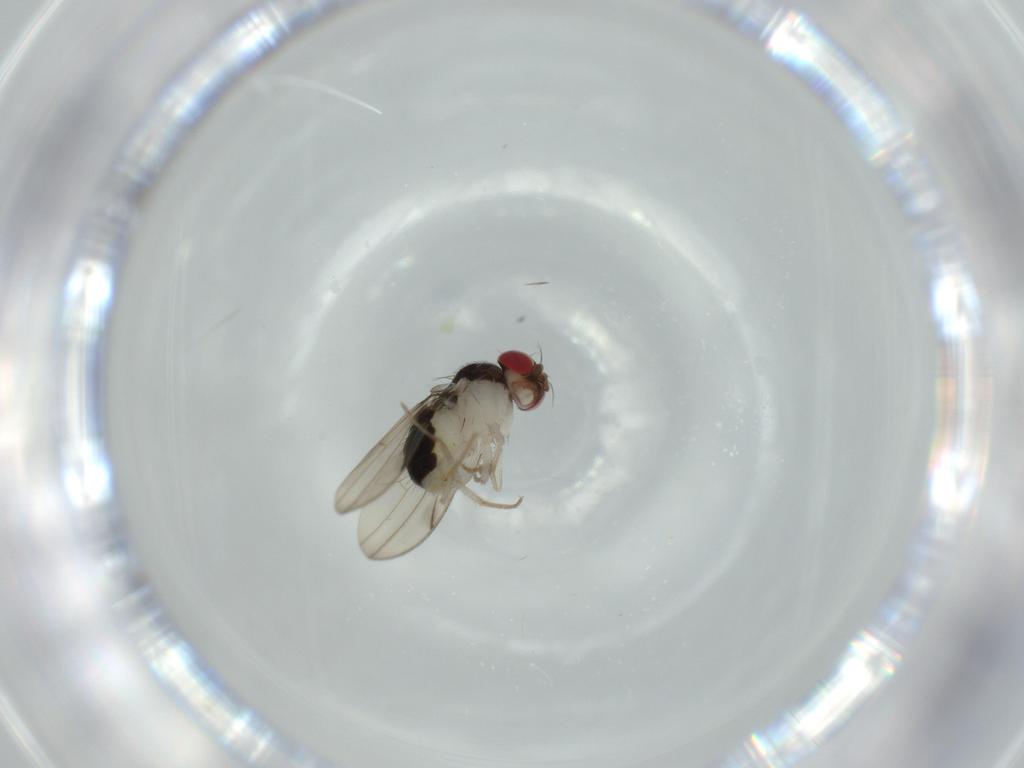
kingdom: Animalia
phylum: Arthropoda
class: Insecta
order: Diptera
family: Drosophilidae
